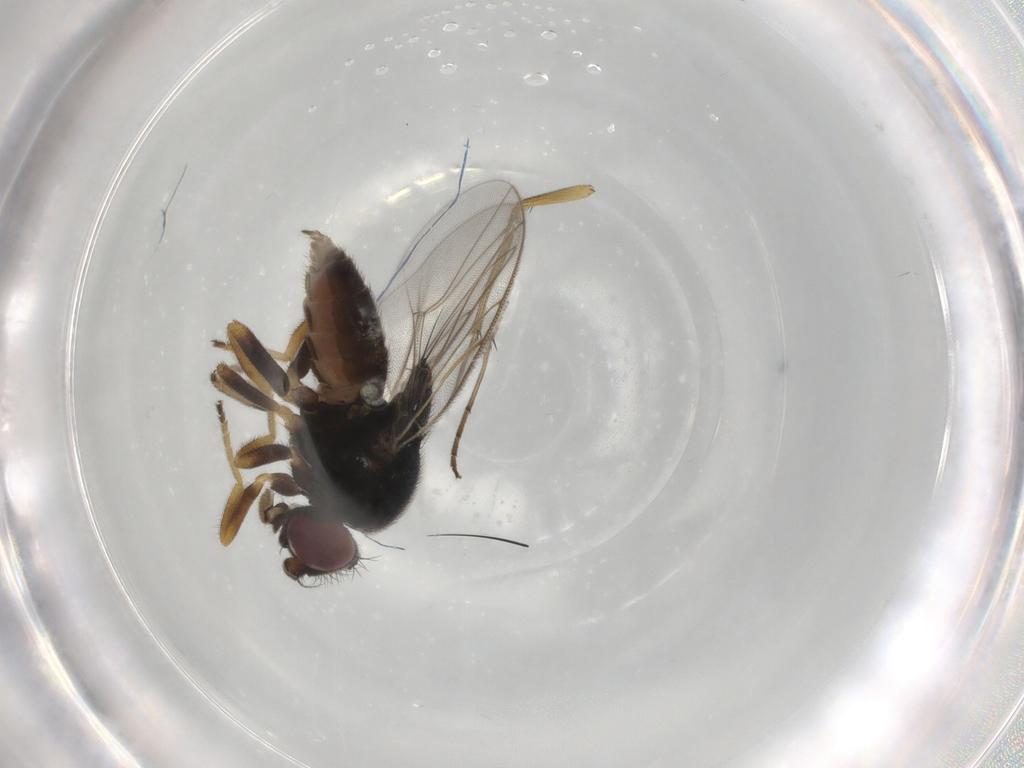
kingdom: Animalia
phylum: Arthropoda
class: Insecta
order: Diptera
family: Chloropidae
